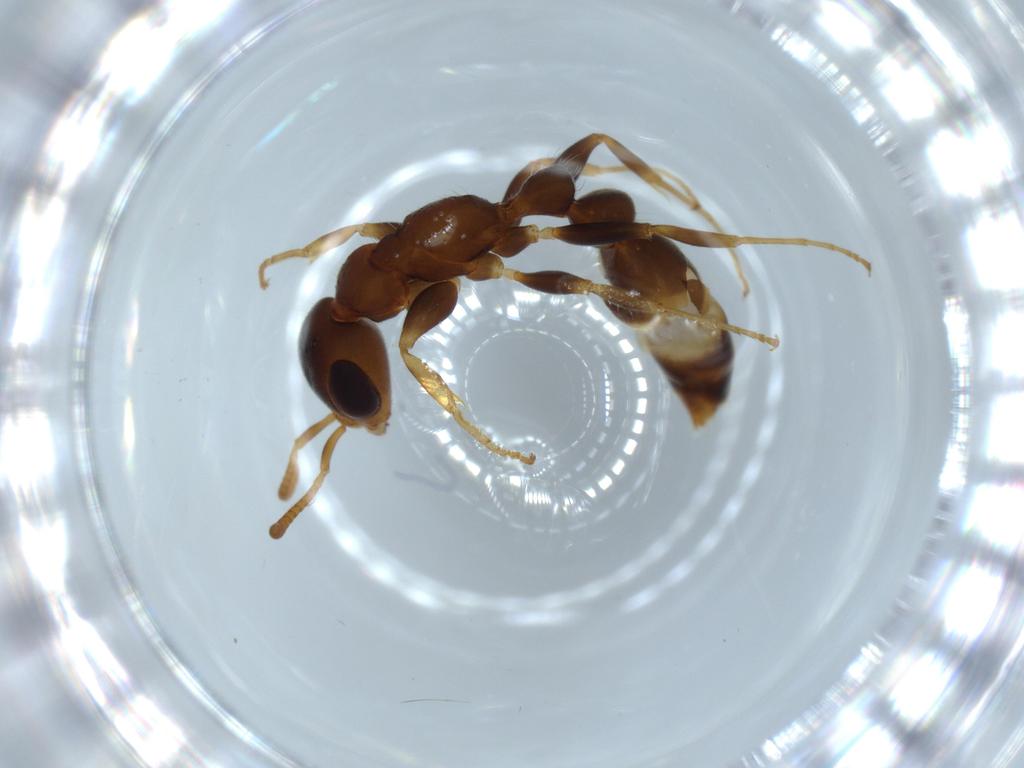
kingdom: Animalia
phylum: Arthropoda
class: Insecta
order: Hymenoptera
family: Formicidae
